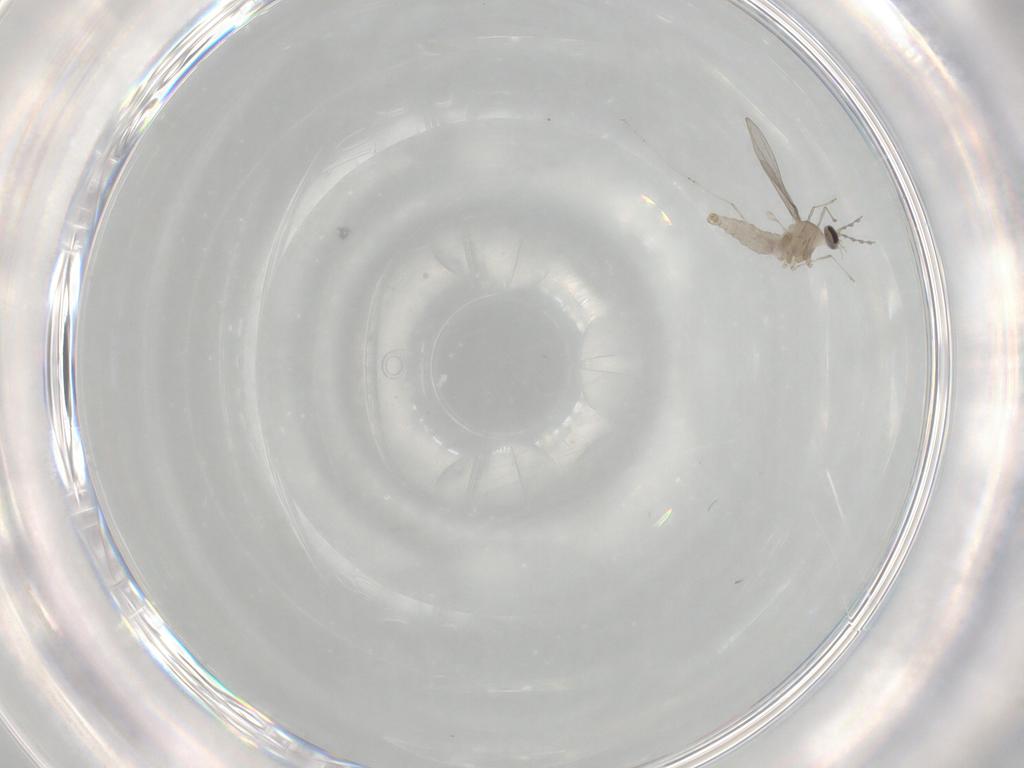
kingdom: Animalia
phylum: Arthropoda
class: Insecta
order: Diptera
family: Cecidomyiidae
